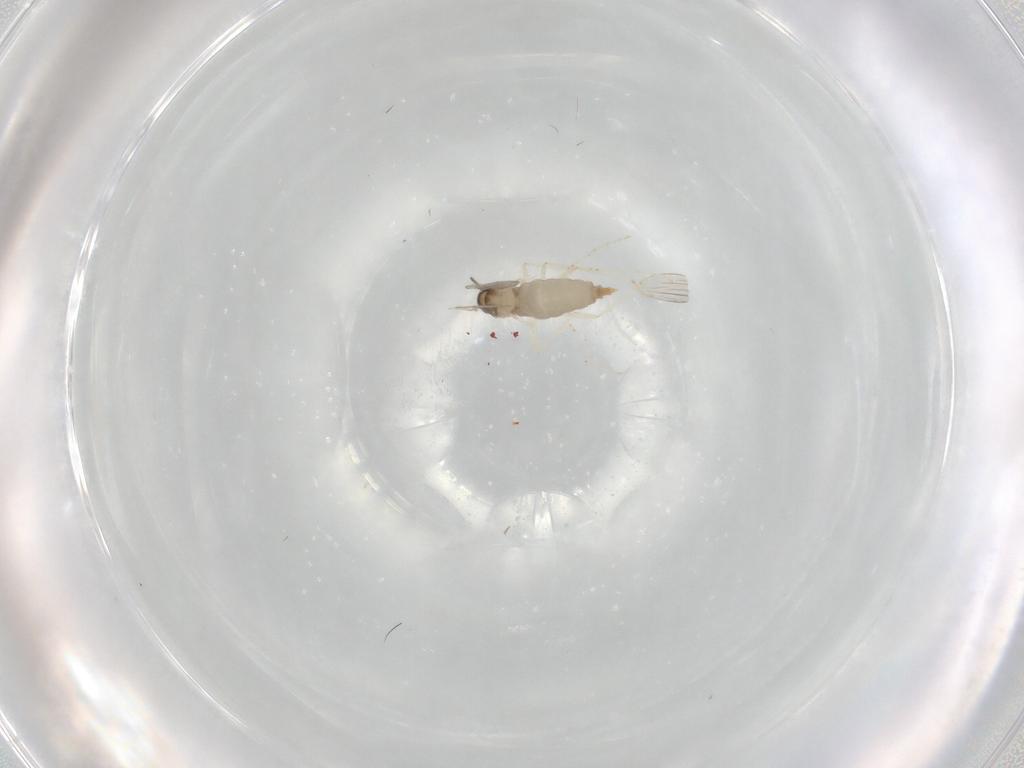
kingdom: Animalia
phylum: Arthropoda
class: Insecta
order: Diptera
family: Cecidomyiidae
